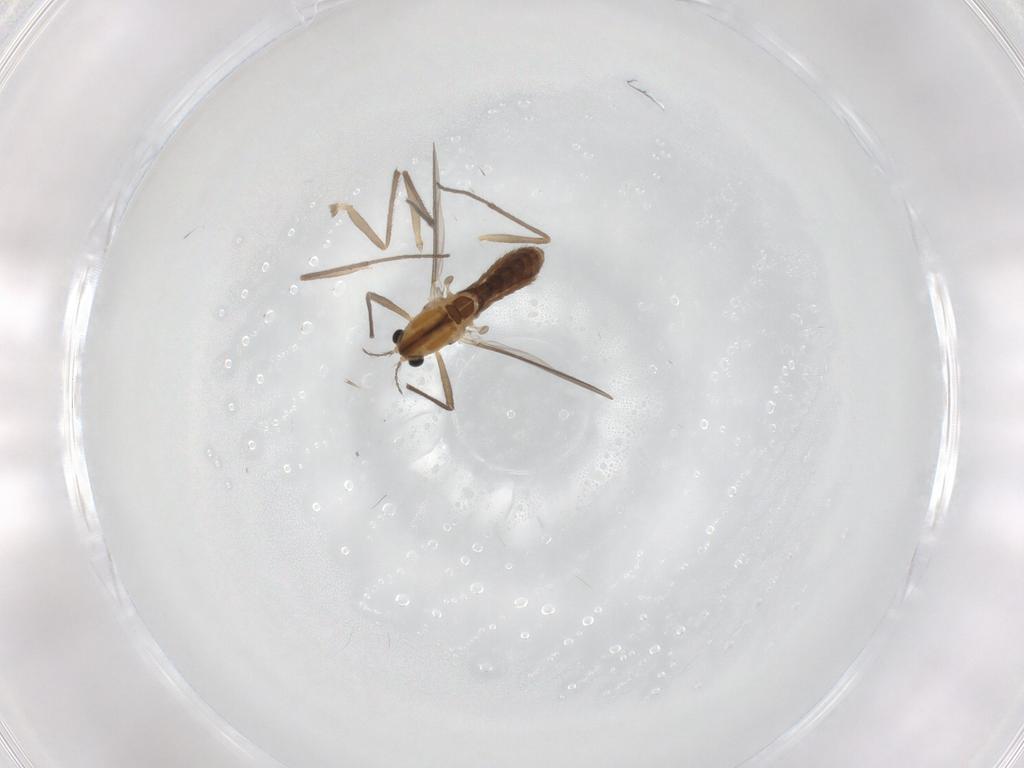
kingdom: Animalia
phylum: Arthropoda
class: Insecta
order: Diptera
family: Chironomidae
